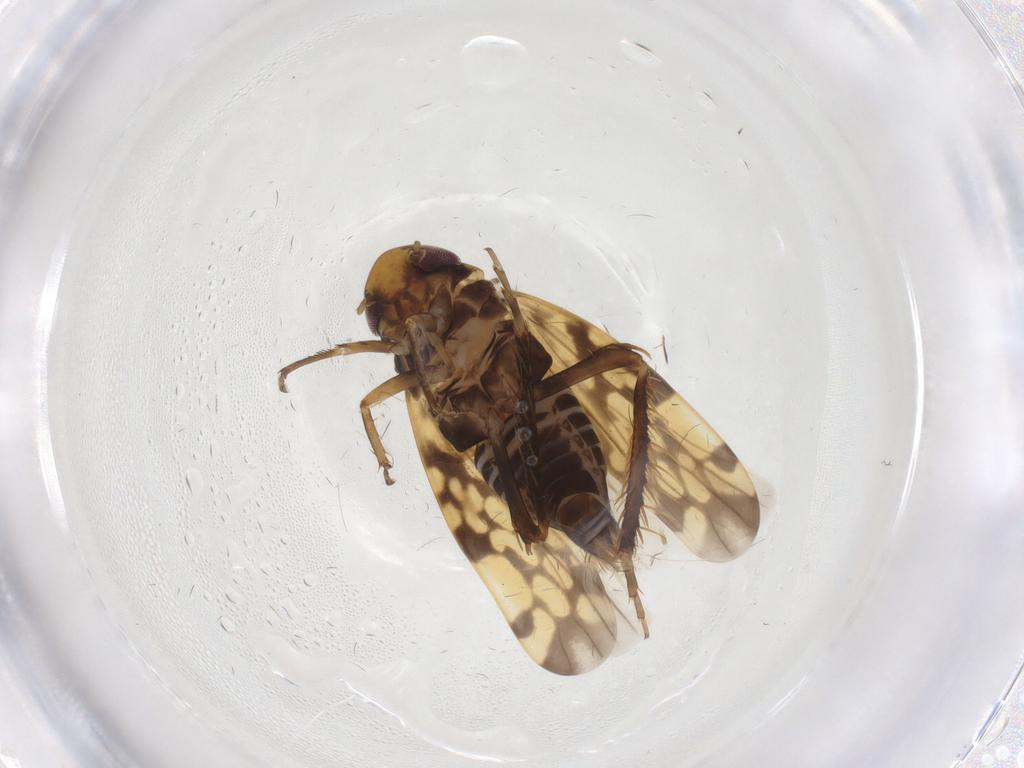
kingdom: Animalia
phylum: Arthropoda
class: Insecta
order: Hemiptera
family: Cicadellidae
